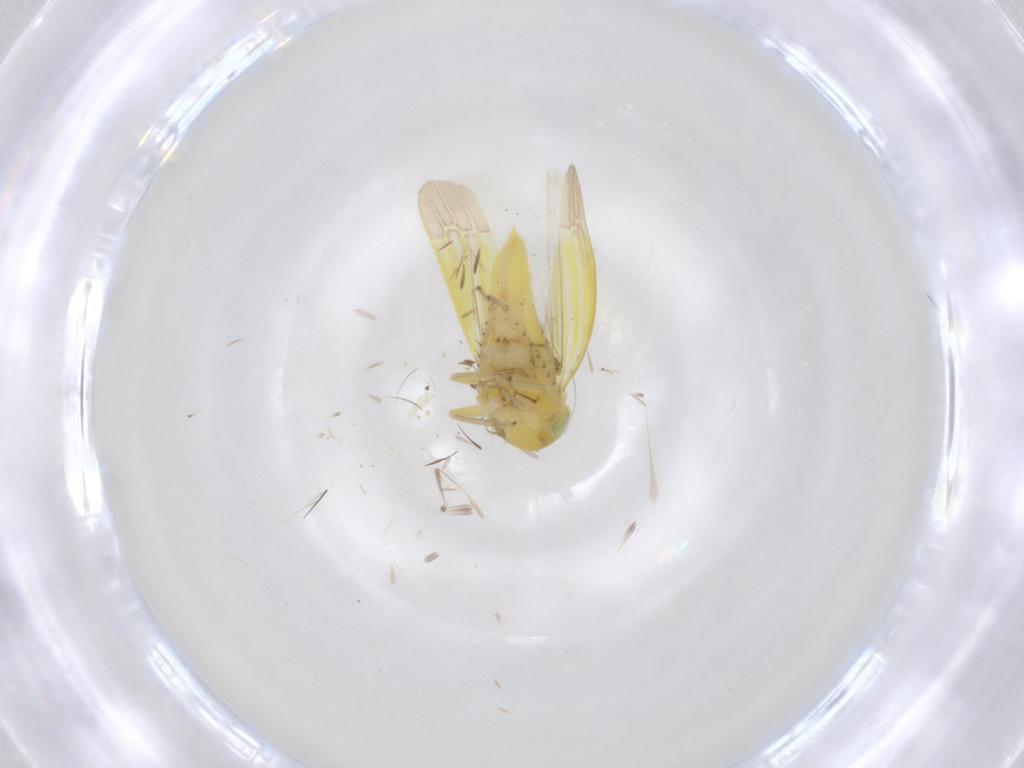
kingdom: Animalia
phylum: Arthropoda
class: Insecta
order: Hemiptera
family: Cicadellidae
